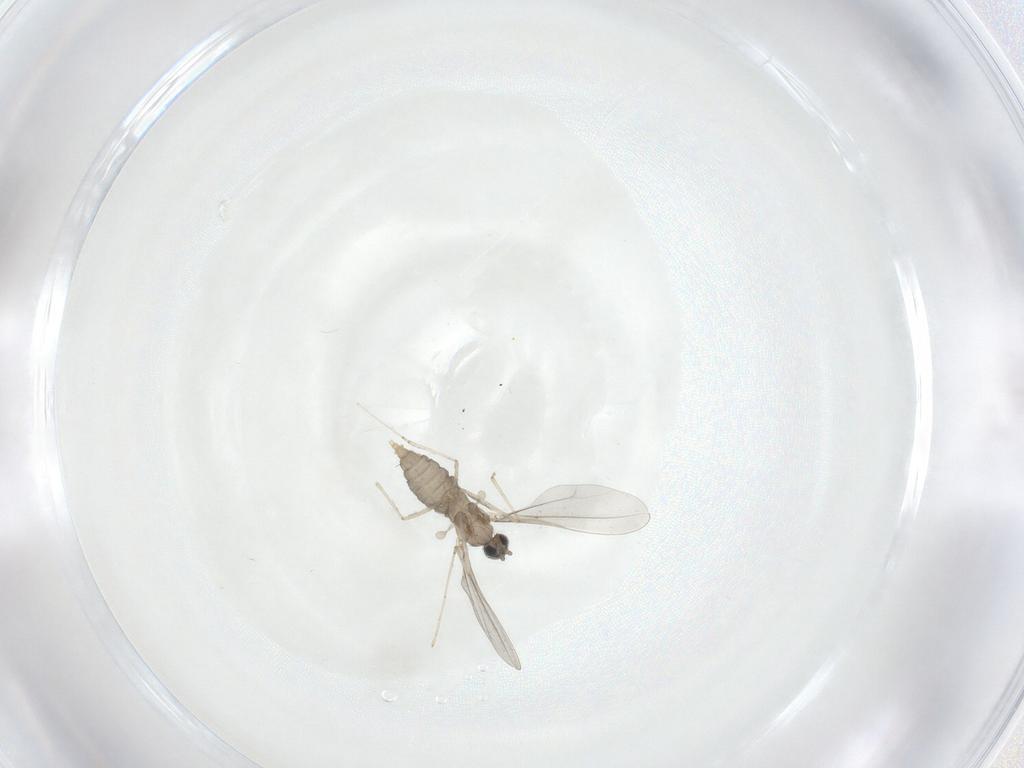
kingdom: Animalia
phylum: Arthropoda
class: Insecta
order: Diptera
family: Cecidomyiidae
